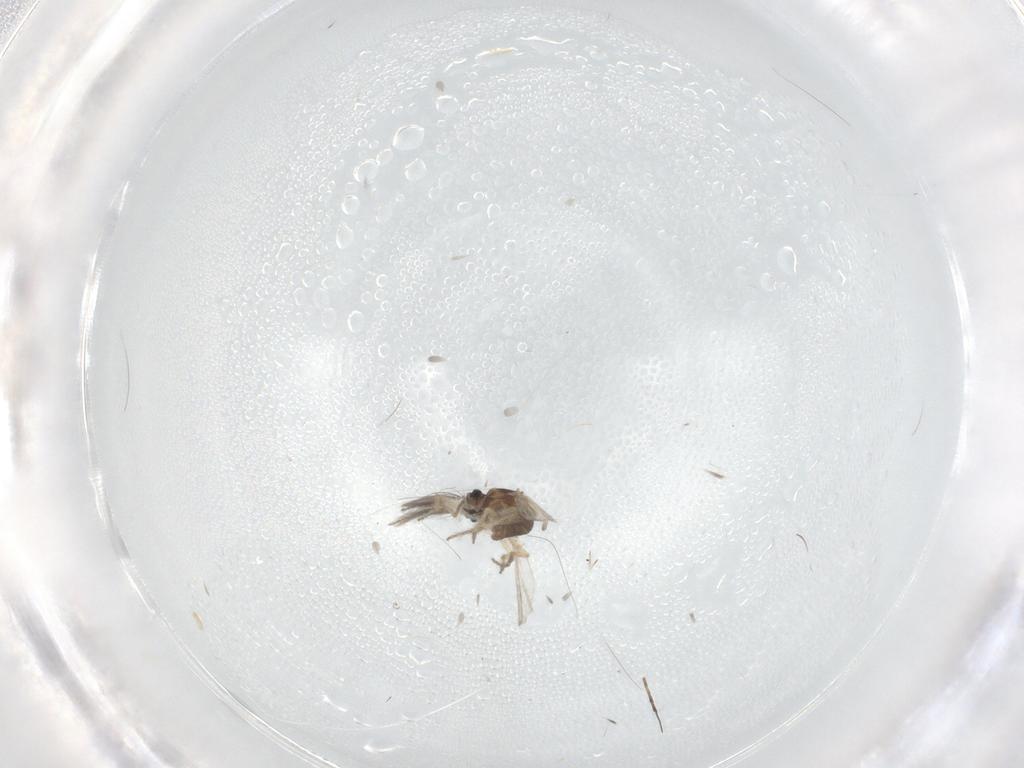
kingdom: Animalia
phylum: Arthropoda
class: Insecta
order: Diptera
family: Ceratopogonidae
